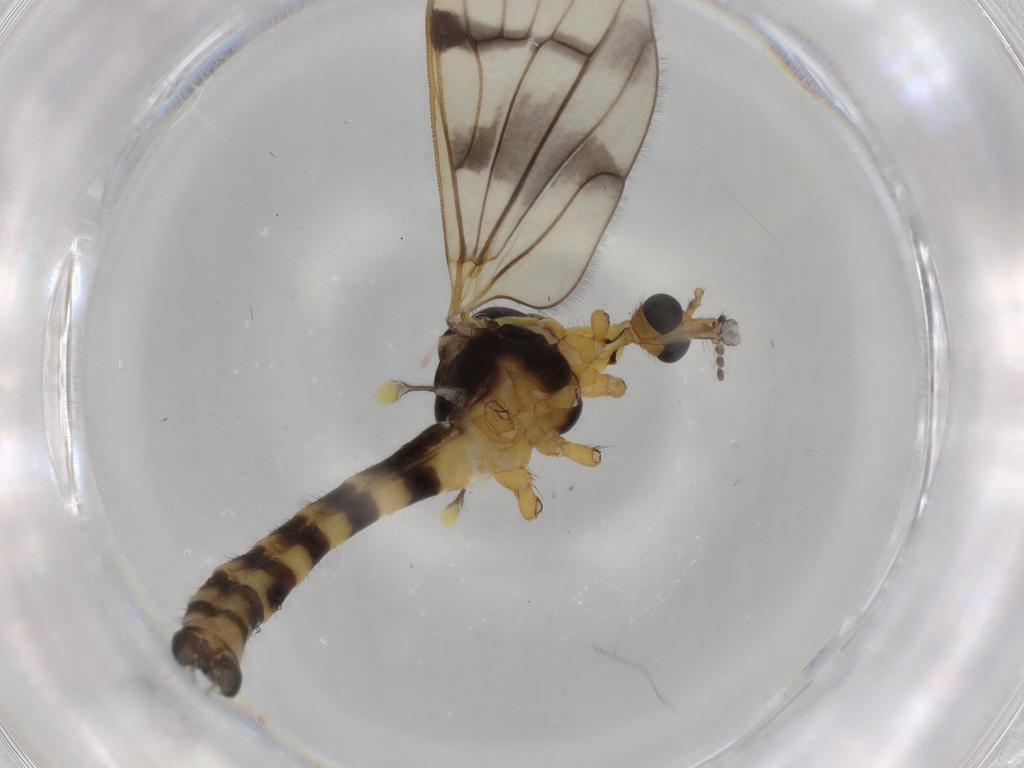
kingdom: Animalia
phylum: Arthropoda
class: Insecta
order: Diptera
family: Limoniidae
